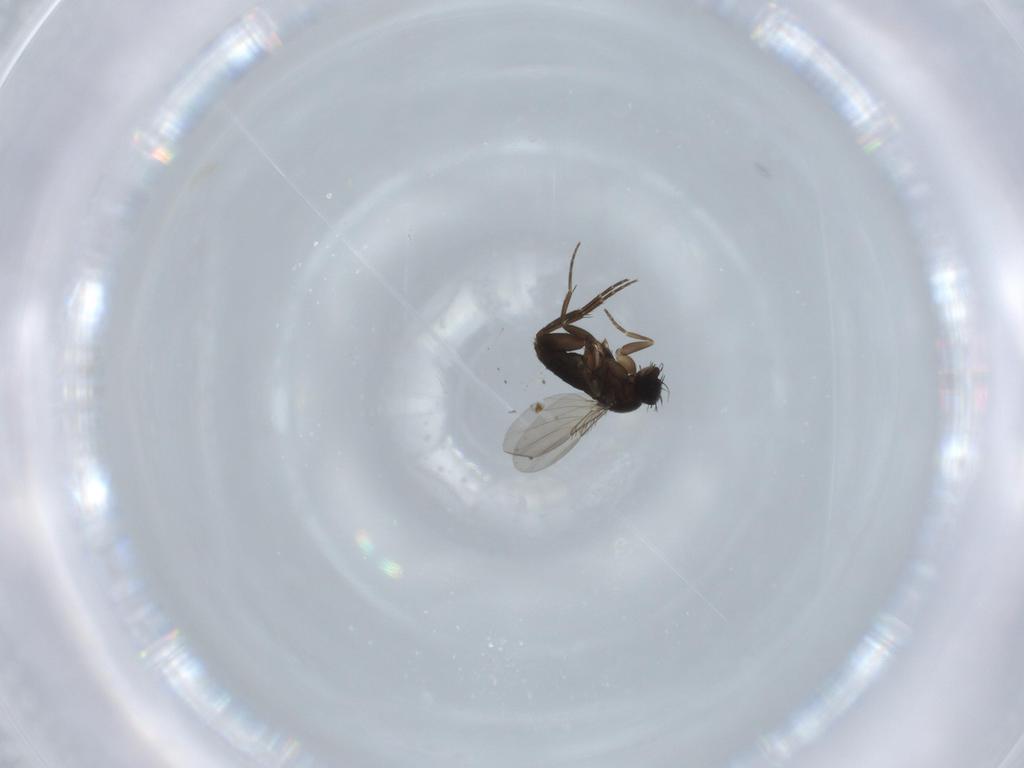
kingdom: Animalia
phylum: Arthropoda
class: Insecta
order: Diptera
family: Phoridae
